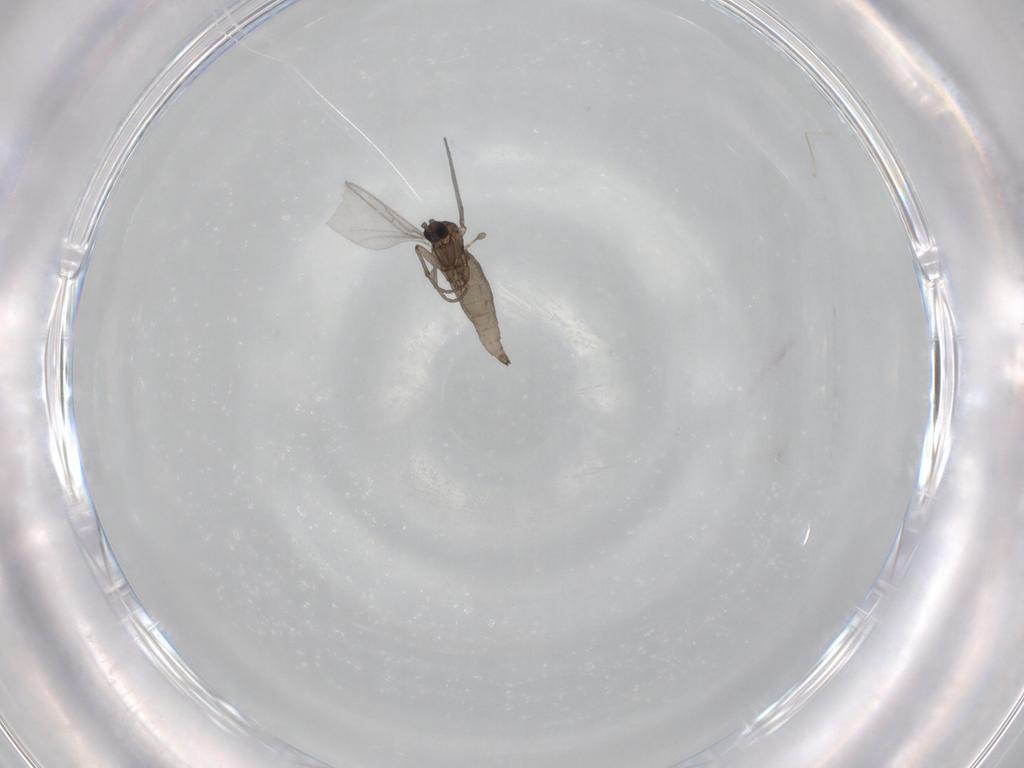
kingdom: Animalia
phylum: Arthropoda
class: Insecta
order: Diptera
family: Sciaridae
